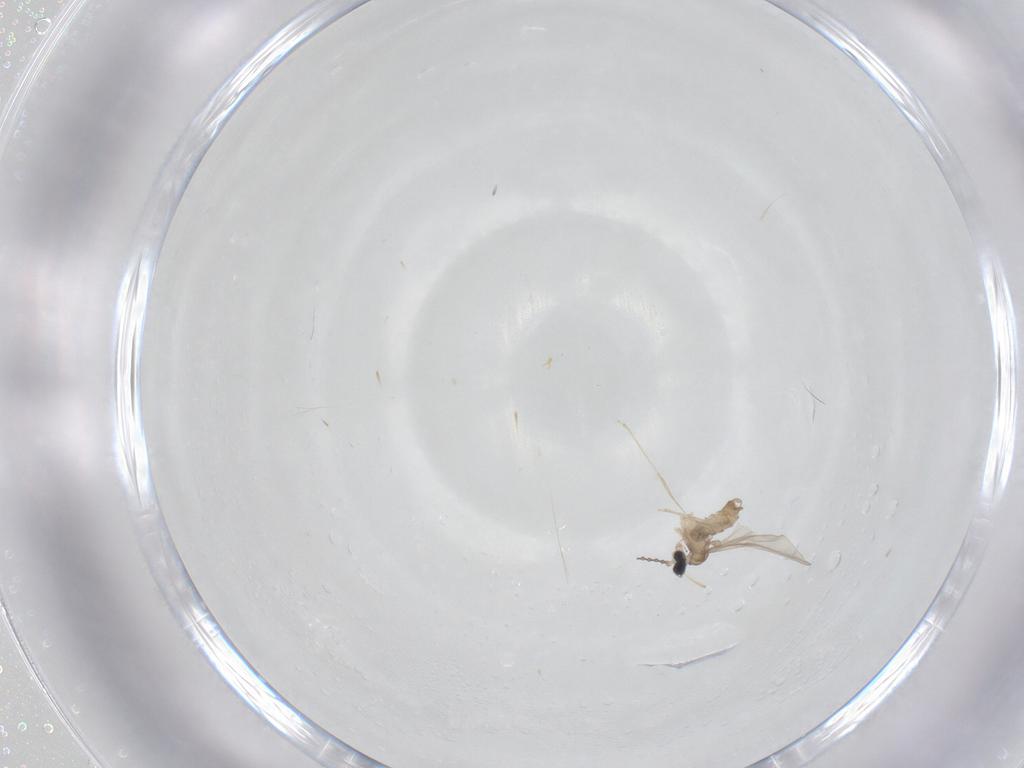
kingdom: Animalia
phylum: Arthropoda
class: Insecta
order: Diptera
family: Cecidomyiidae
